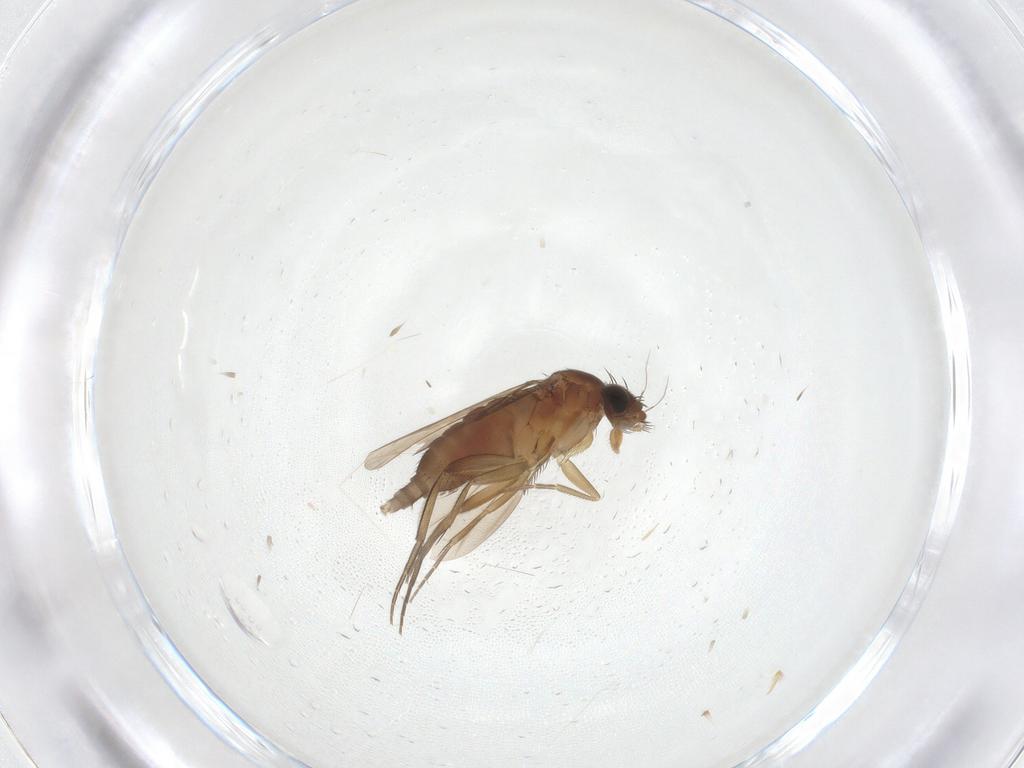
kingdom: Animalia
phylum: Arthropoda
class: Insecta
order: Diptera
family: Phoridae
